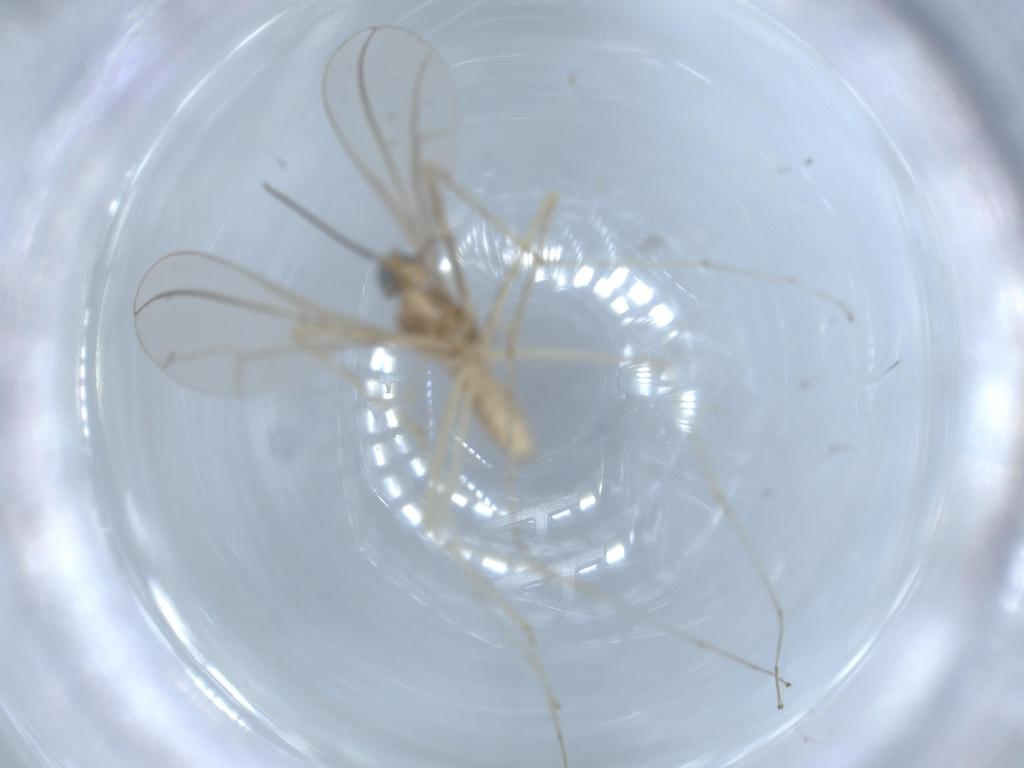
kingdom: Animalia
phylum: Arthropoda
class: Insecta
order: Diptera
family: Cecidomyiidae
